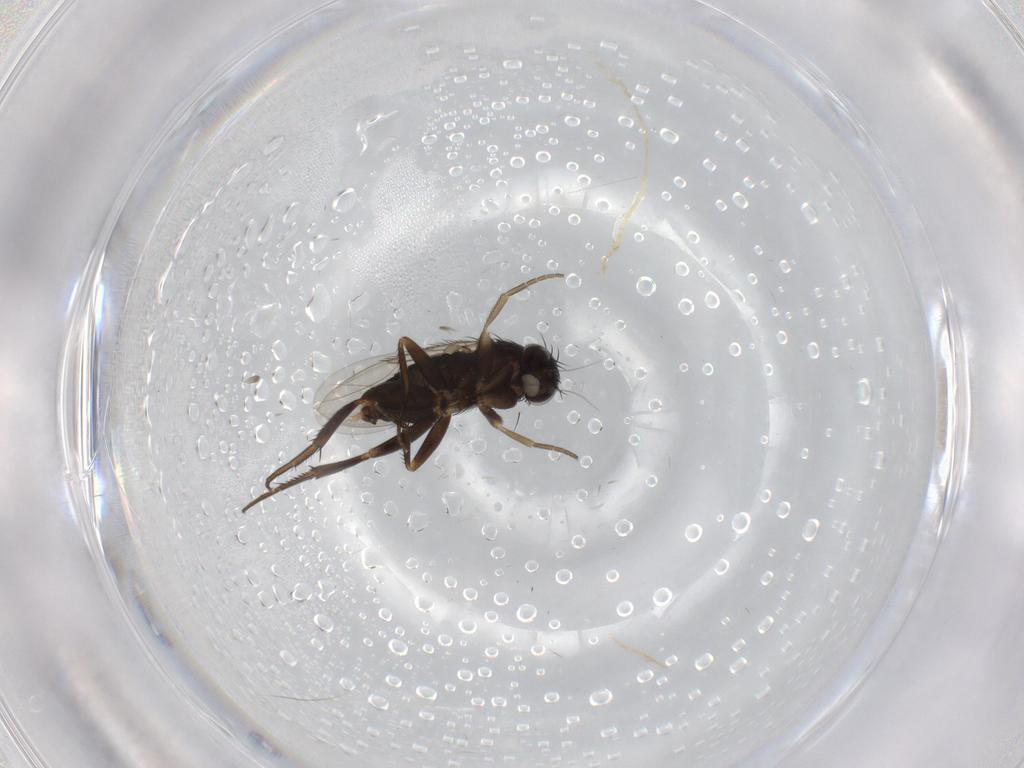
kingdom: Animalia
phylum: Arthropoda
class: Insecta
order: Diptera
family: Phoridae
